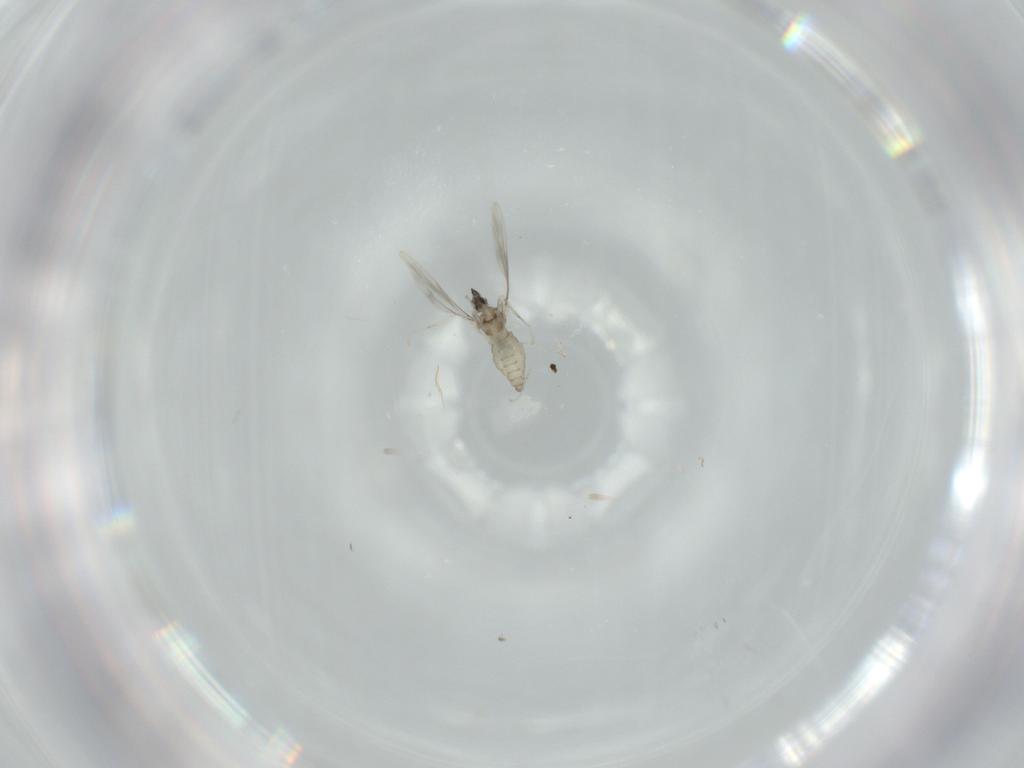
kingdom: Animalia
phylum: Arthropoda
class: Insecta
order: Diptera
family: Cecidomyiidae
